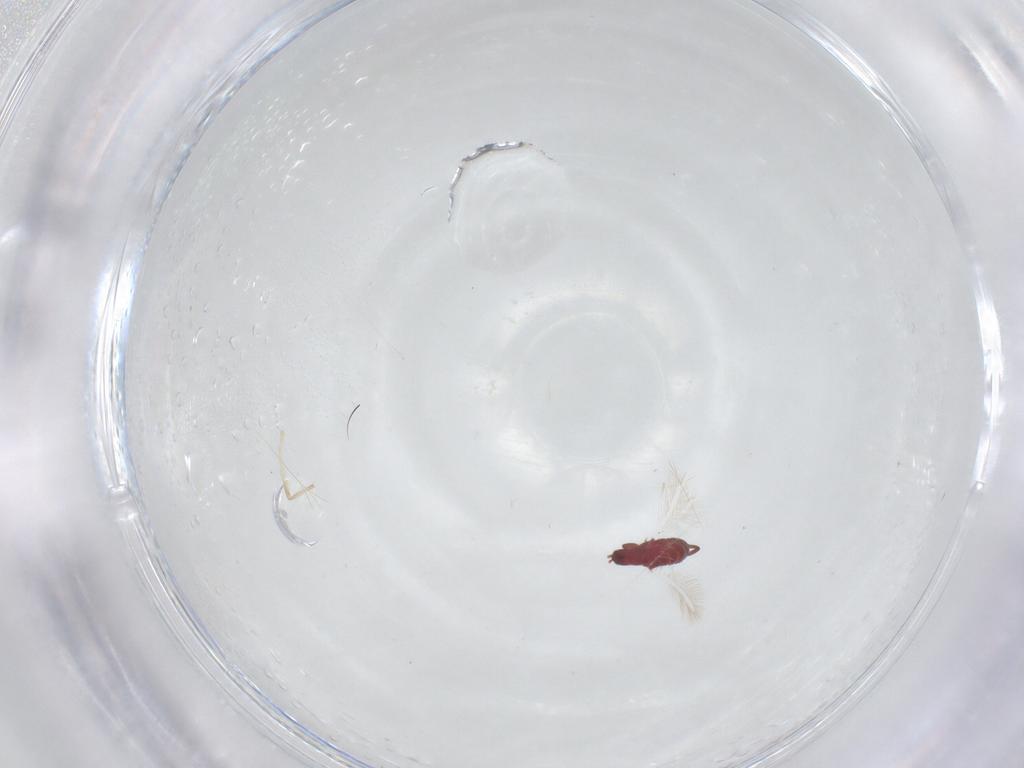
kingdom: Animalia
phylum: Arthropoda
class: Insecta
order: Thysanoptera
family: Phlaeothripidae
